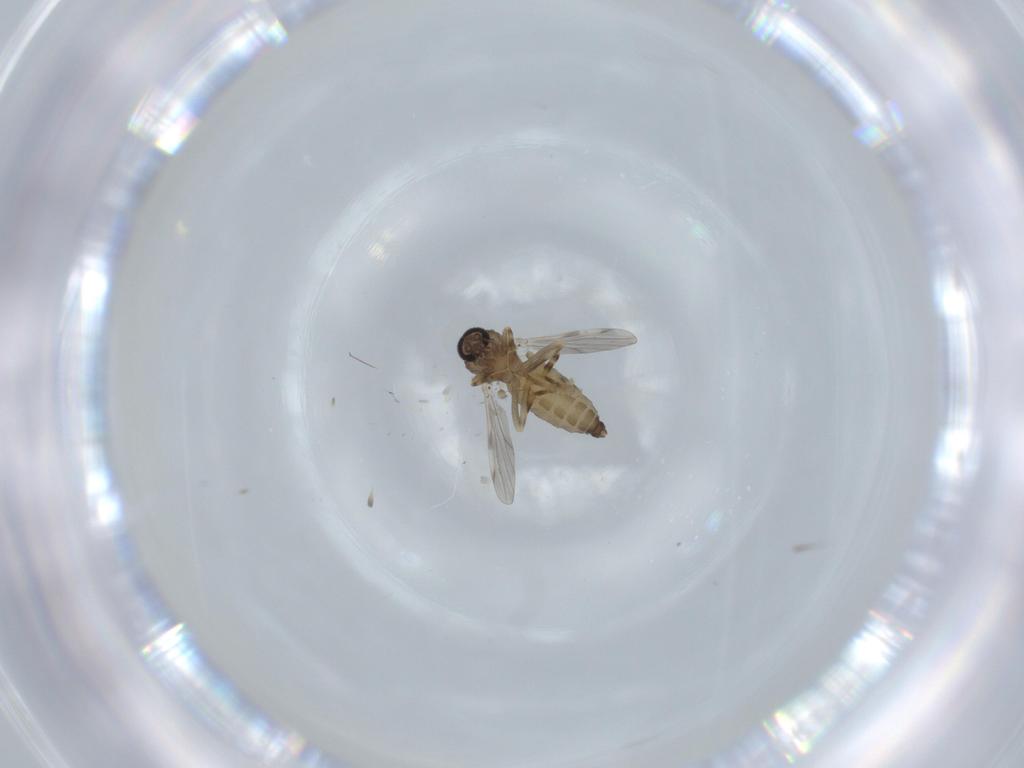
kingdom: Animalia
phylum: Arthropoda
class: Insecta
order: Diptera
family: Ceratopogonidae
